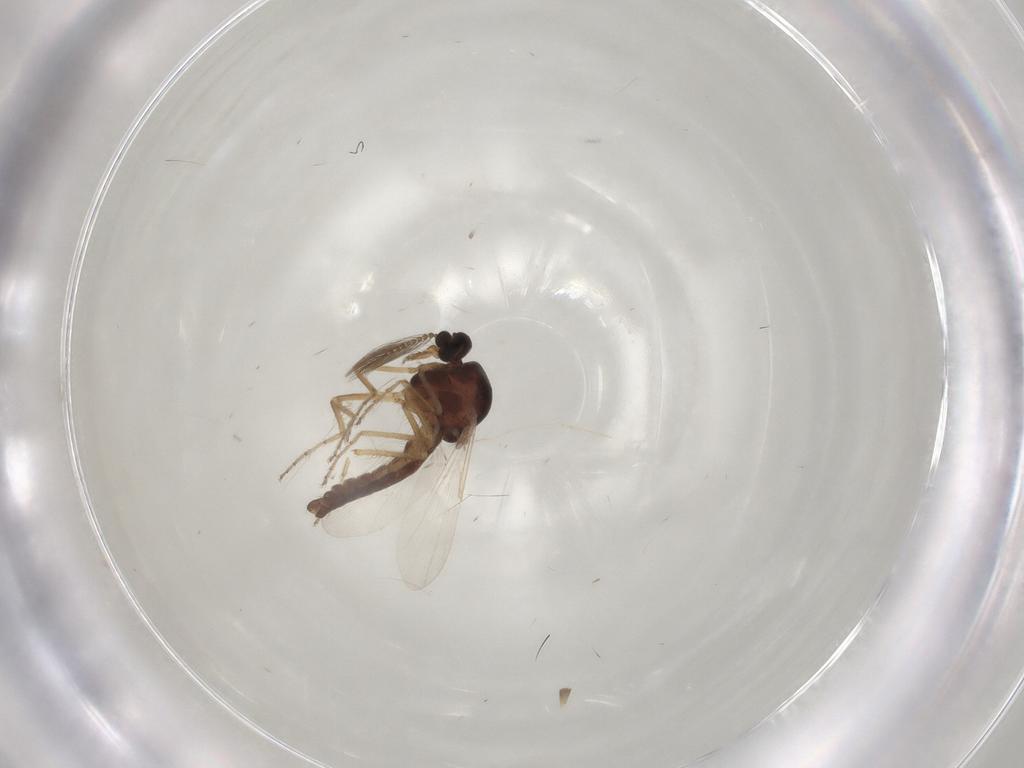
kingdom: Animalia
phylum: Arthropoda
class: Insecta
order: Diptera
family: Ceratopogonidae
